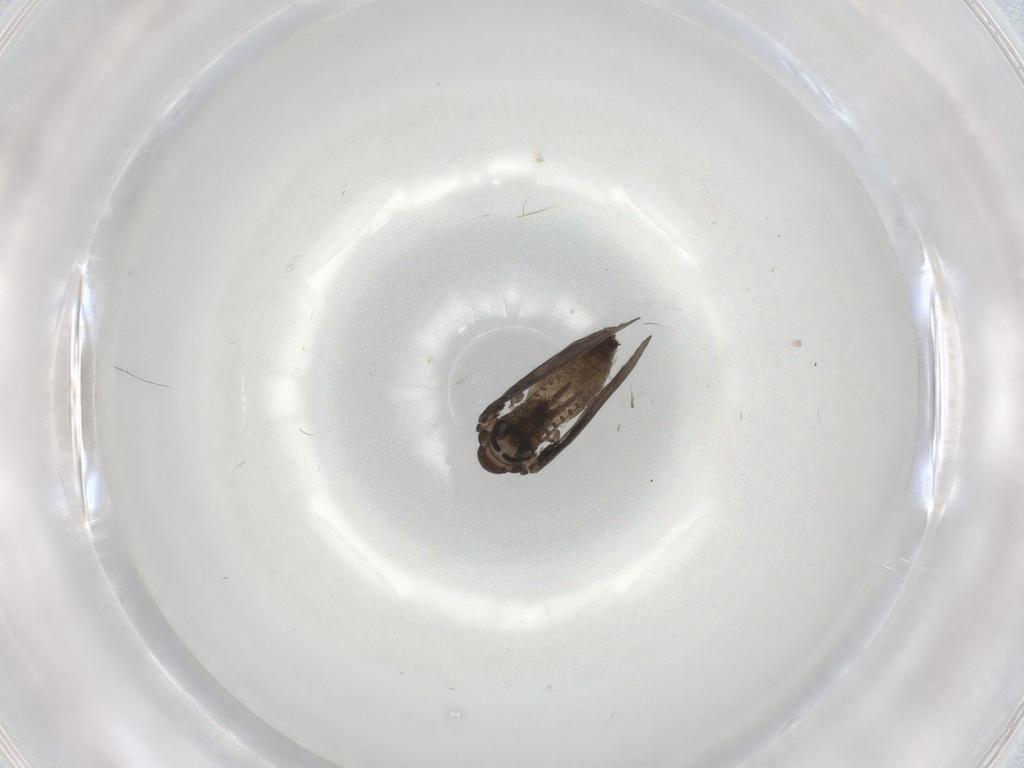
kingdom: Animalia
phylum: Arthropoda
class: Insecta
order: Diptera
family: Psychodidae
